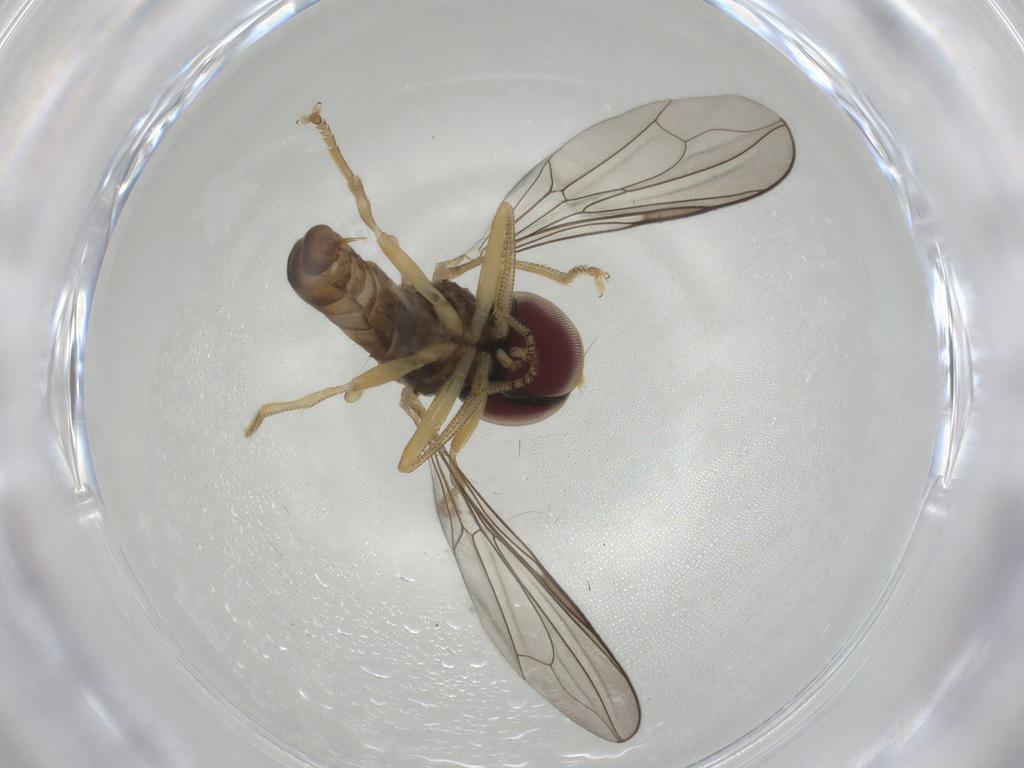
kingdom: Animalia
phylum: Arthropoda
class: Insecta
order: Diptera
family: Pipunculidae
